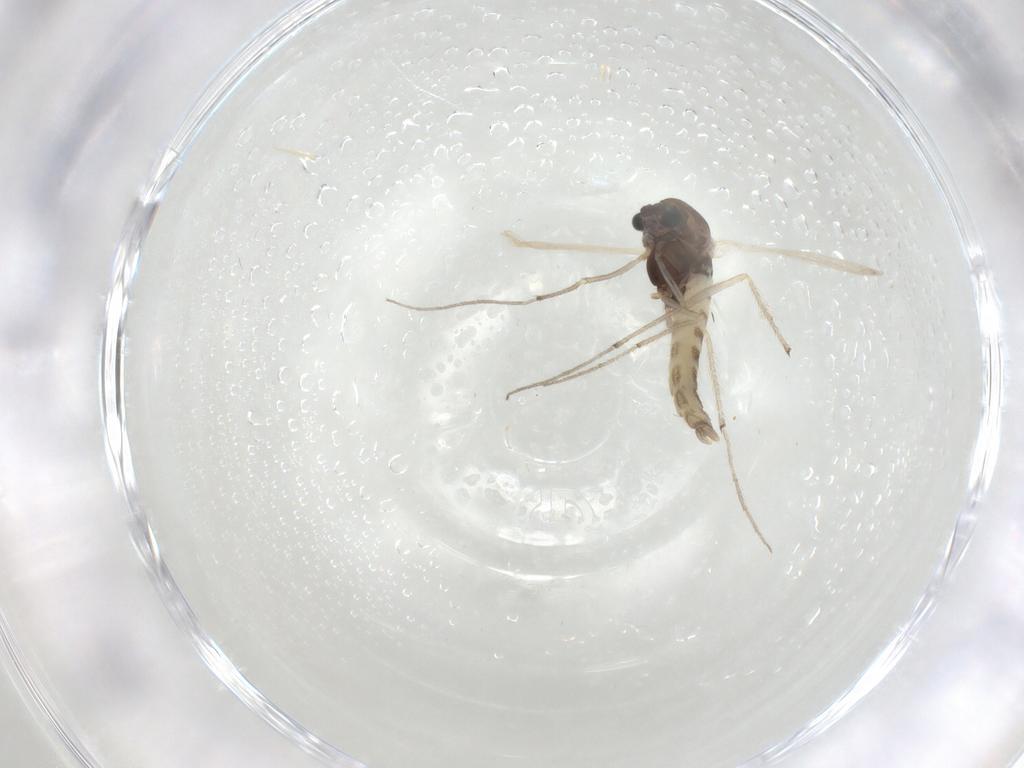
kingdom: Animalia
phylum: Arthropoda
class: Insecta
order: Diptera
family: Chironomidae
